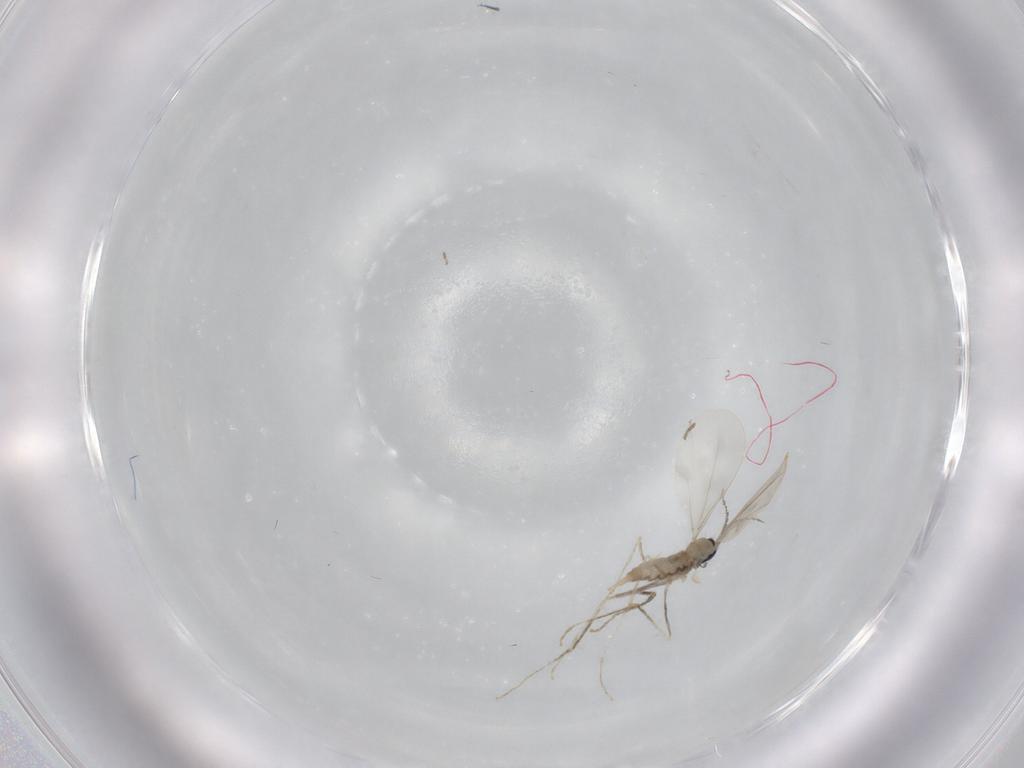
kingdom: Animalia
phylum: Arthropoda
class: Insecta
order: Diptera
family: Chironomidae
